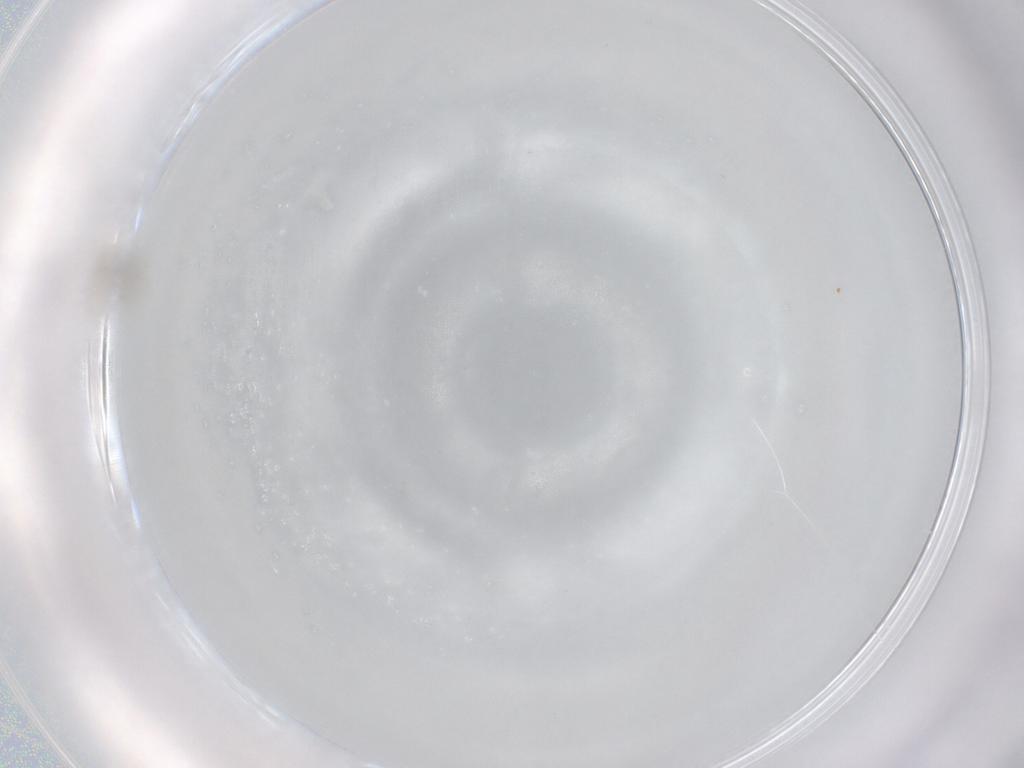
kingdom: Animalia
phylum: Arthropoda
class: Insecta
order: Diptera
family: Cecidomyiidae
